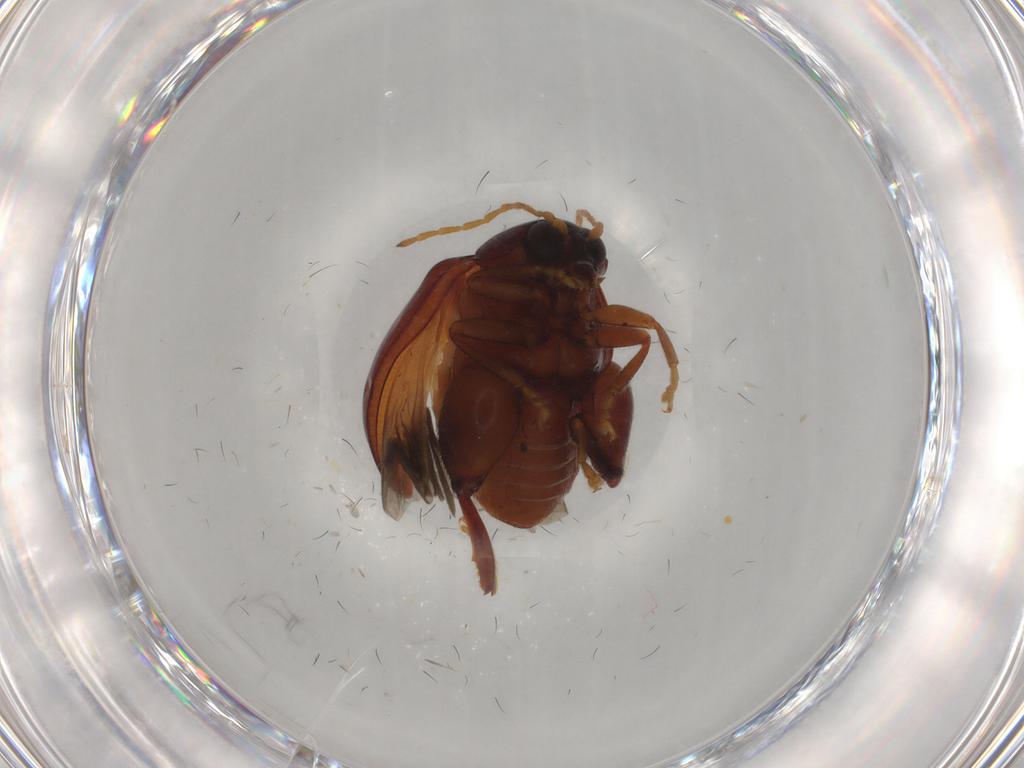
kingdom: Animalia
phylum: Arthropoda
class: Insecta
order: Coleoptera
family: Chrysomelidae
